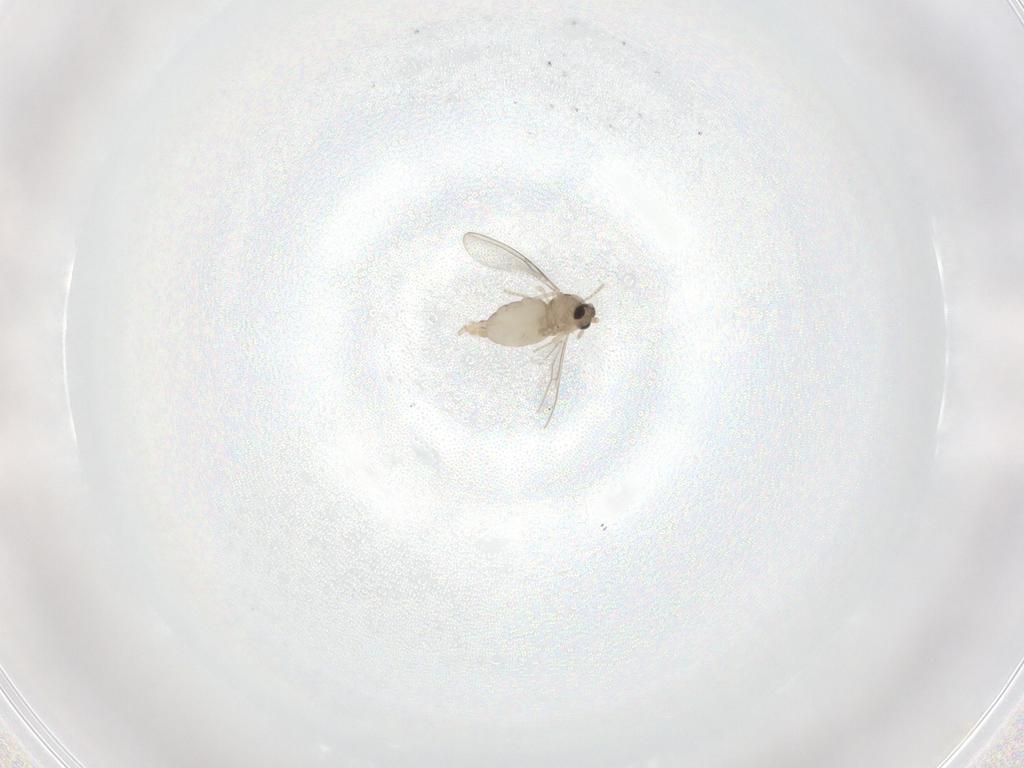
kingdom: Animalia
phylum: Arthropoda
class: Insecta
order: Diptera
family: Cecidomyiidae
